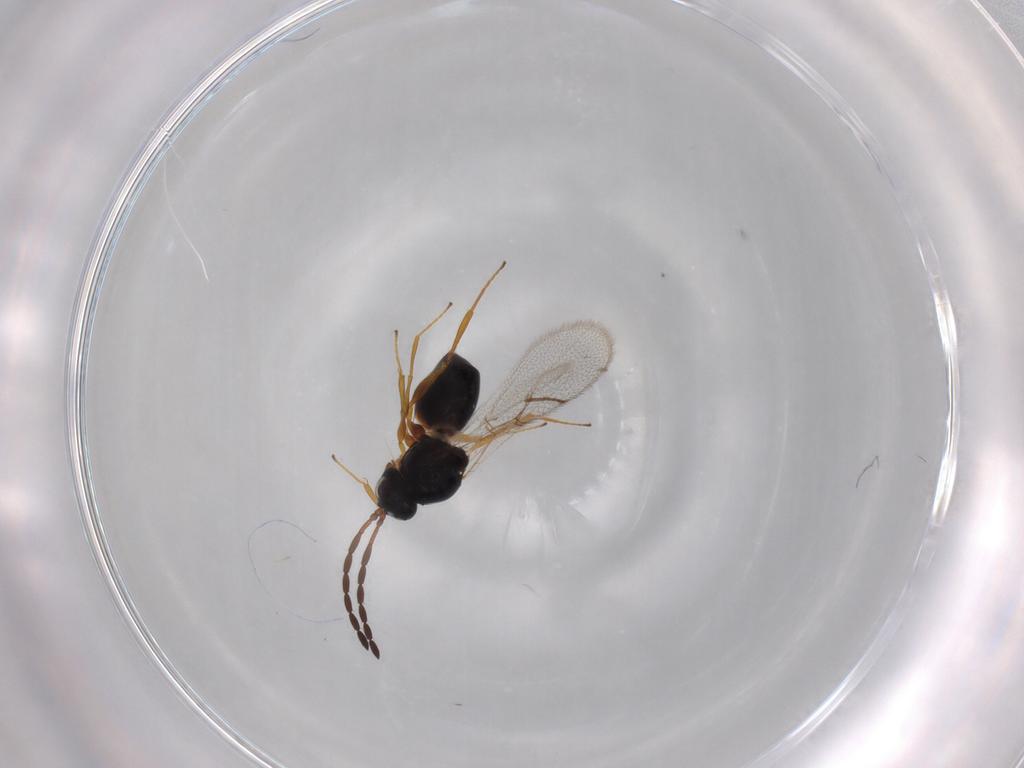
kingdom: Animalia
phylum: Arthropoda
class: Insecta
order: Hymenoptera
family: Figitidae
